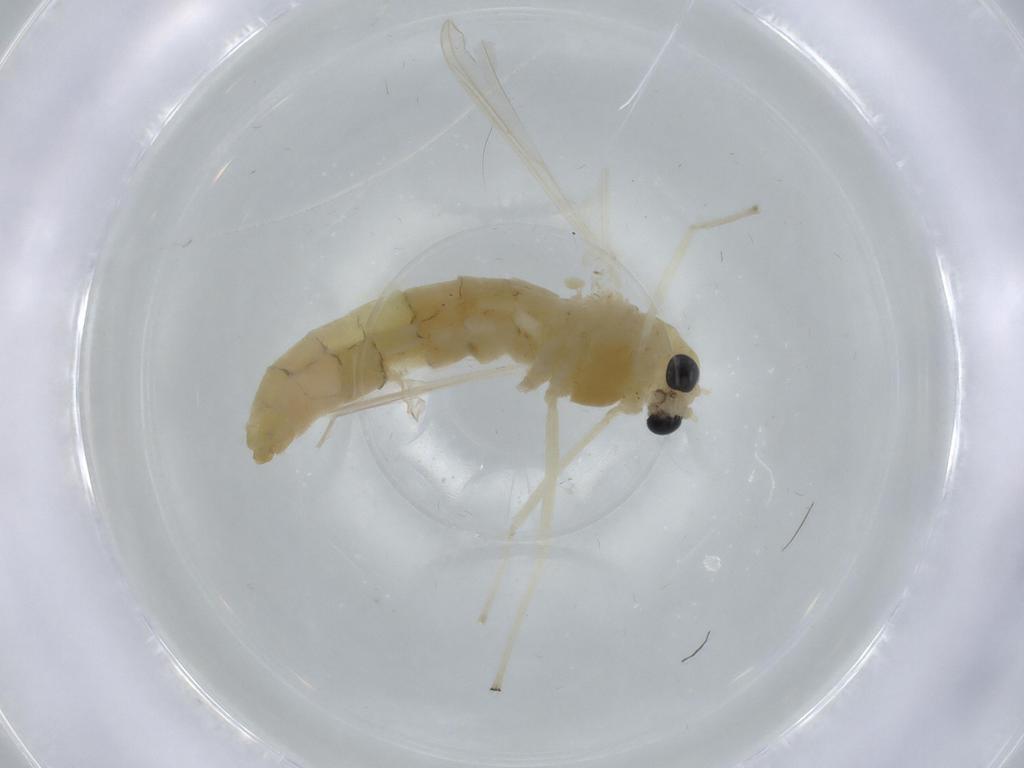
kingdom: Animalia
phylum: Arthropoda
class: Insecta
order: Diptera
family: Chironomidae
